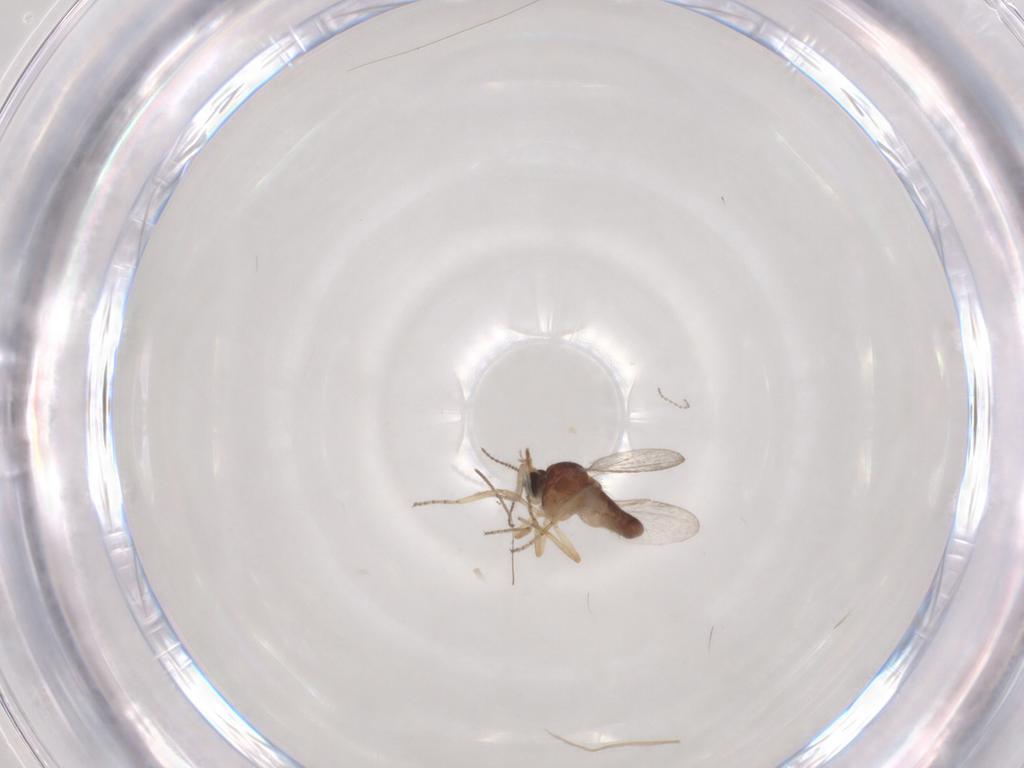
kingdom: Animalia
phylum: Arthropoda
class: Insecta
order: Diptera
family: Ceratopogonidae
